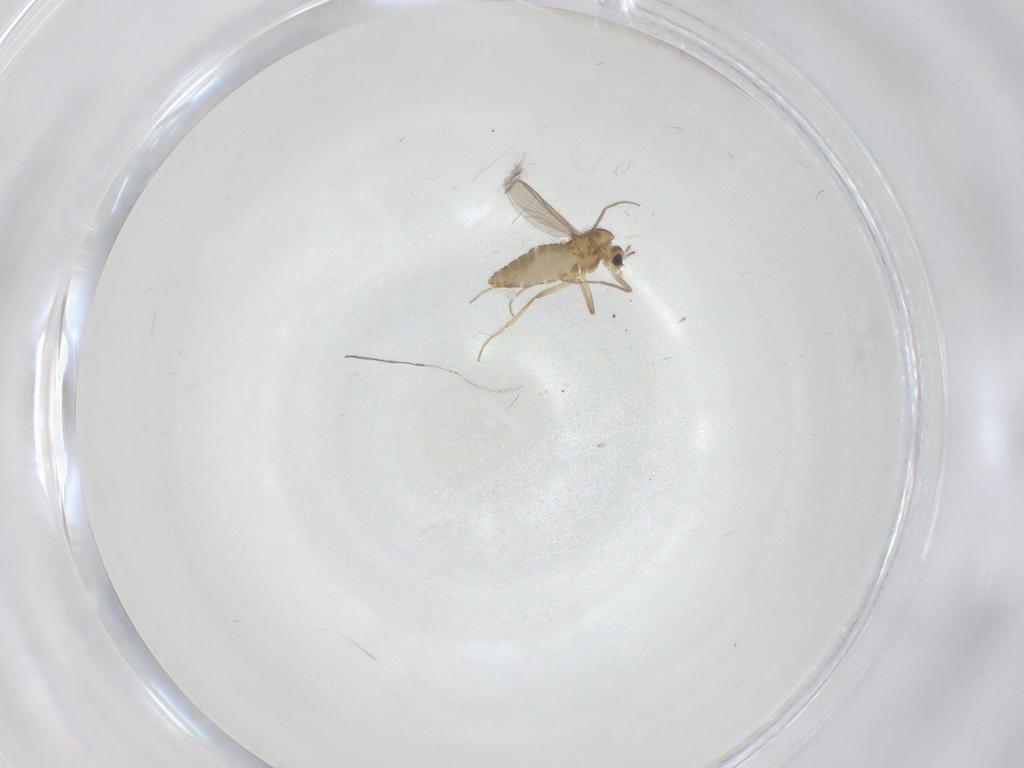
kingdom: Animalia
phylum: Arthropoda
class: Insecta
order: Diptera
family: Chironomidae
